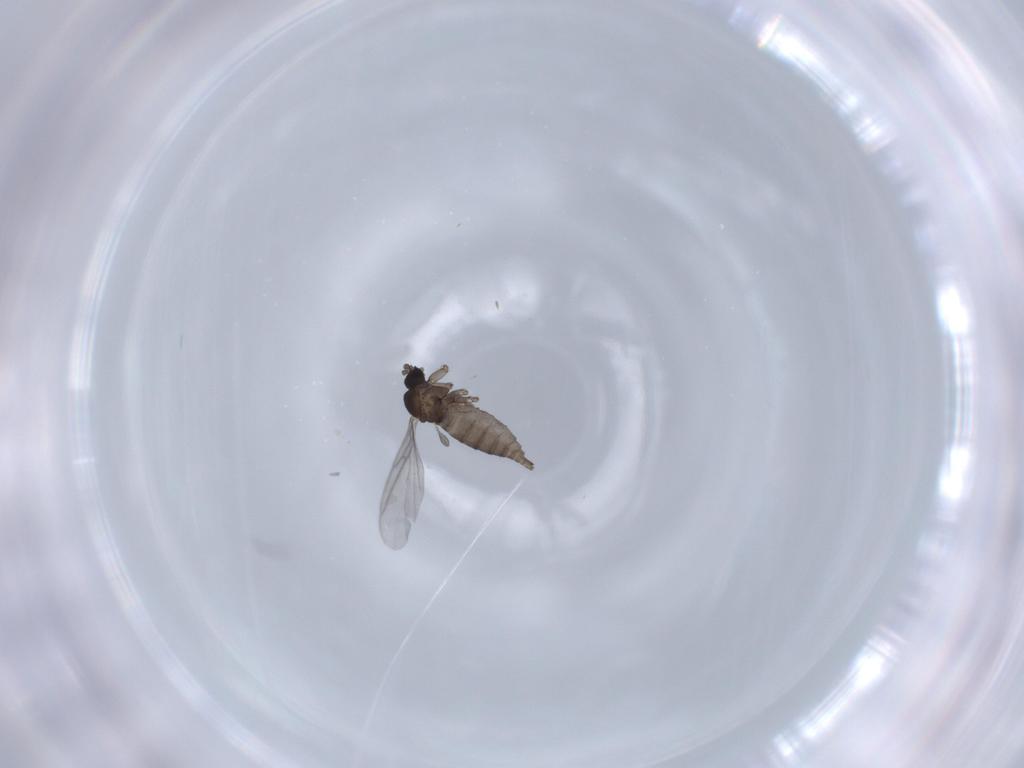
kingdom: Animalia
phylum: Arthropoda
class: Insecta
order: Diptera
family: Sciaridae
